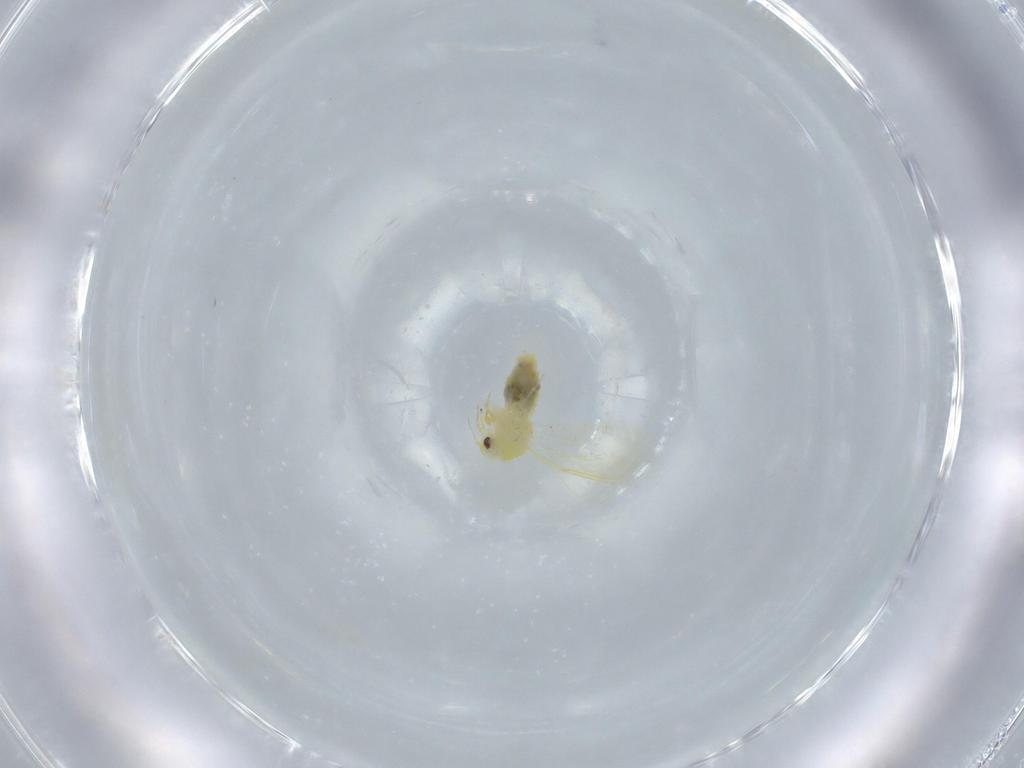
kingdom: Animalia
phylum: Arthropoda
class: Insecta
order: Hemiptera
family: Aleyrodidae
